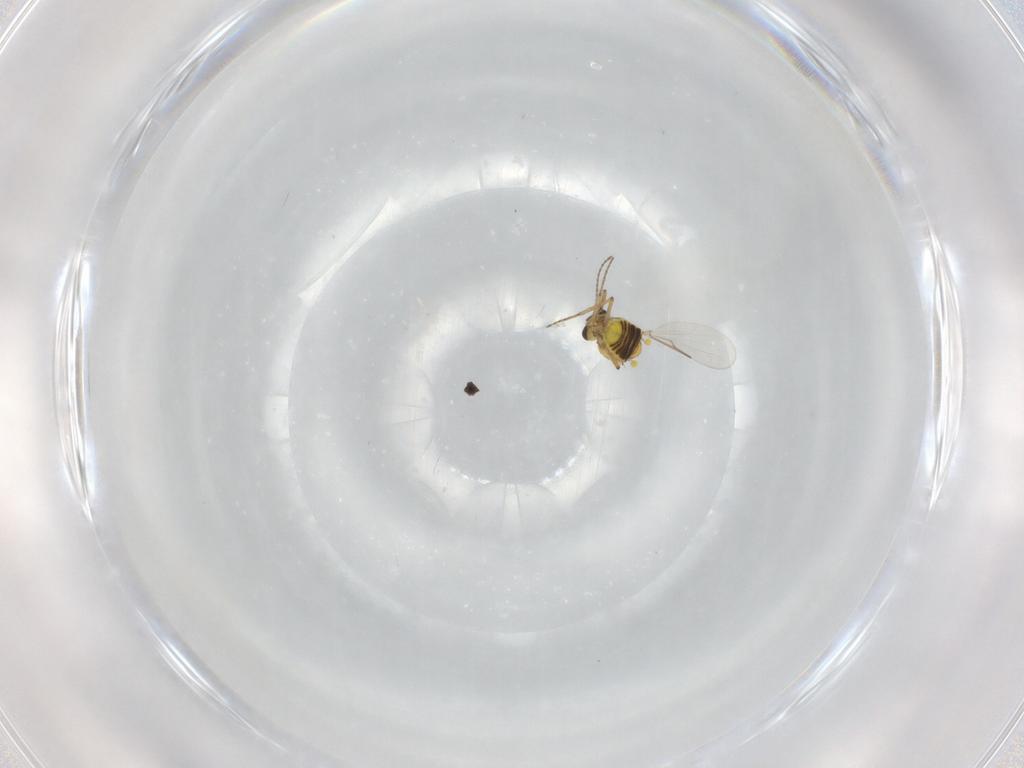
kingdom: Animalia
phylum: Arthropoda
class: Insecta
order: Diptera
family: Ceratopogonidae
